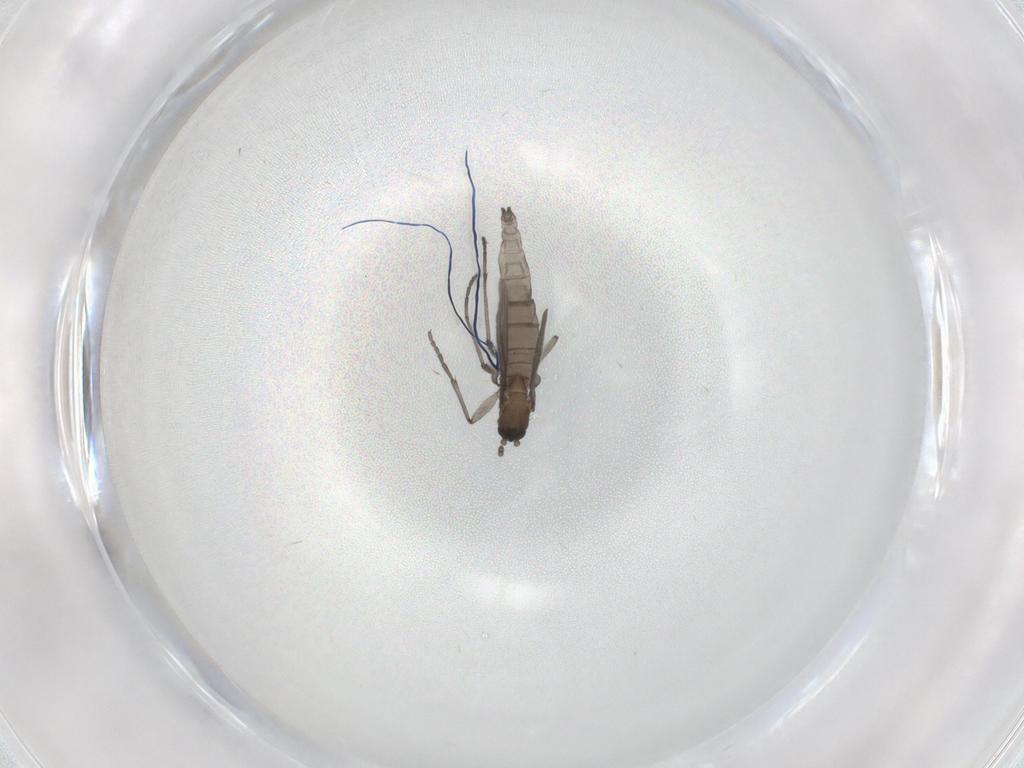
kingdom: Animalia
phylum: Arthropoda
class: Insecta
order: Diptera
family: Sciaridae
